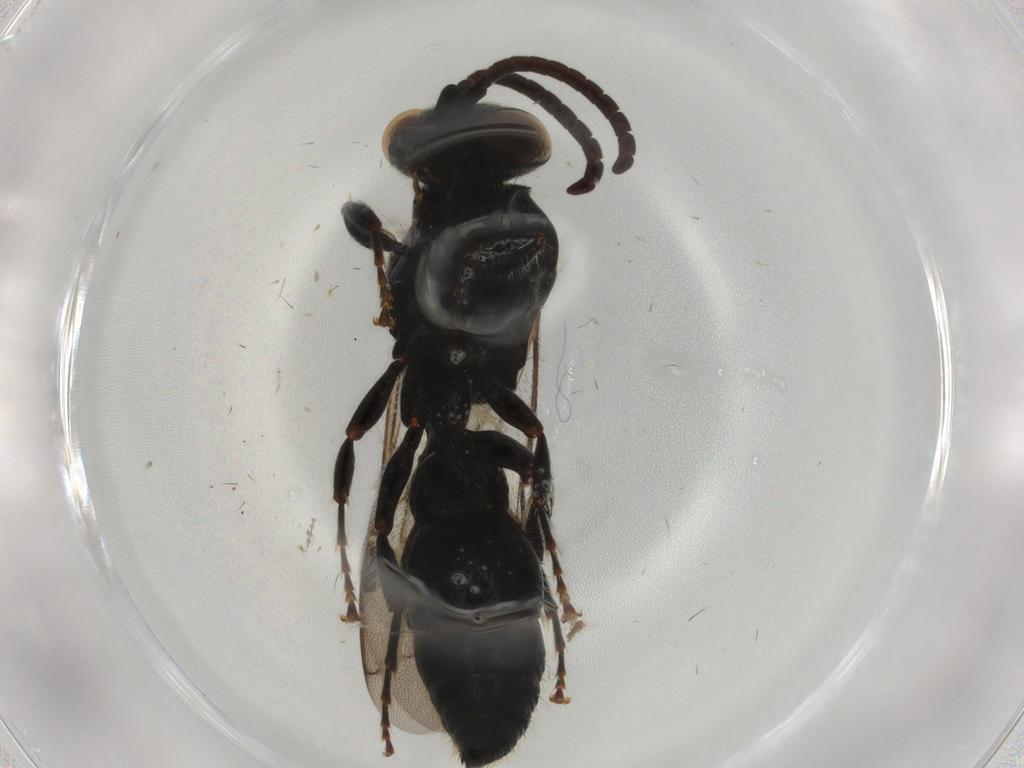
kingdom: Animalia
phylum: Arthropoda
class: Insecta
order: Hymenoptera
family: Tiphiidae
